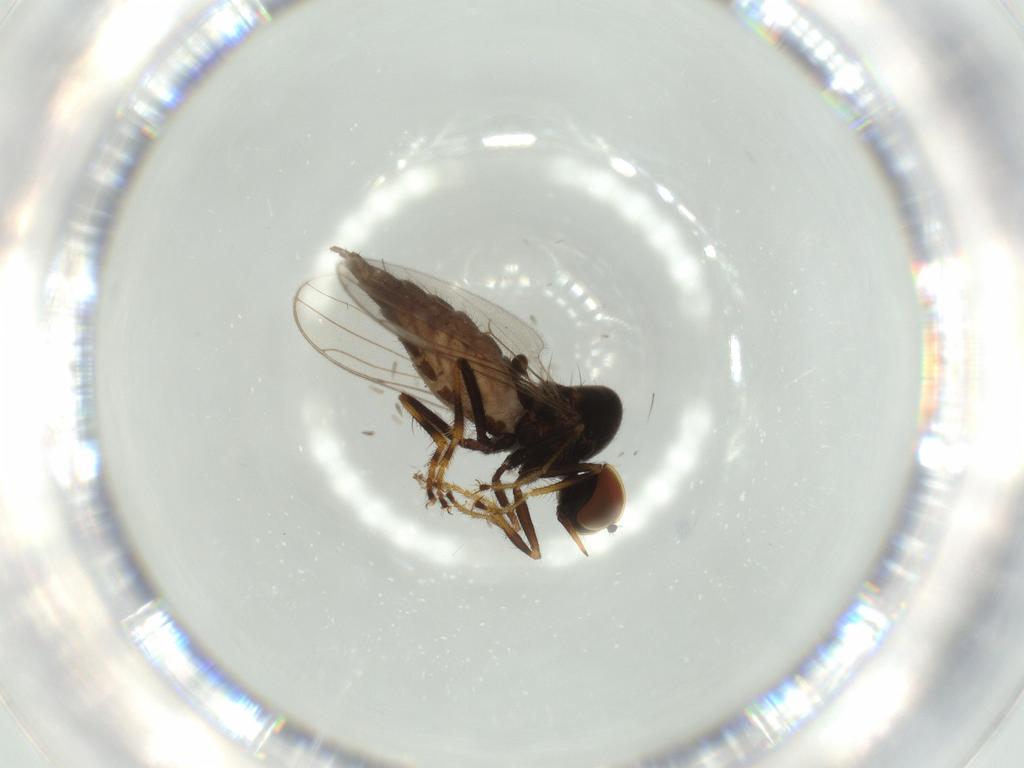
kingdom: Animalia
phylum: Arthropoda
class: Insecta
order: Diptera
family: Hybotidae
